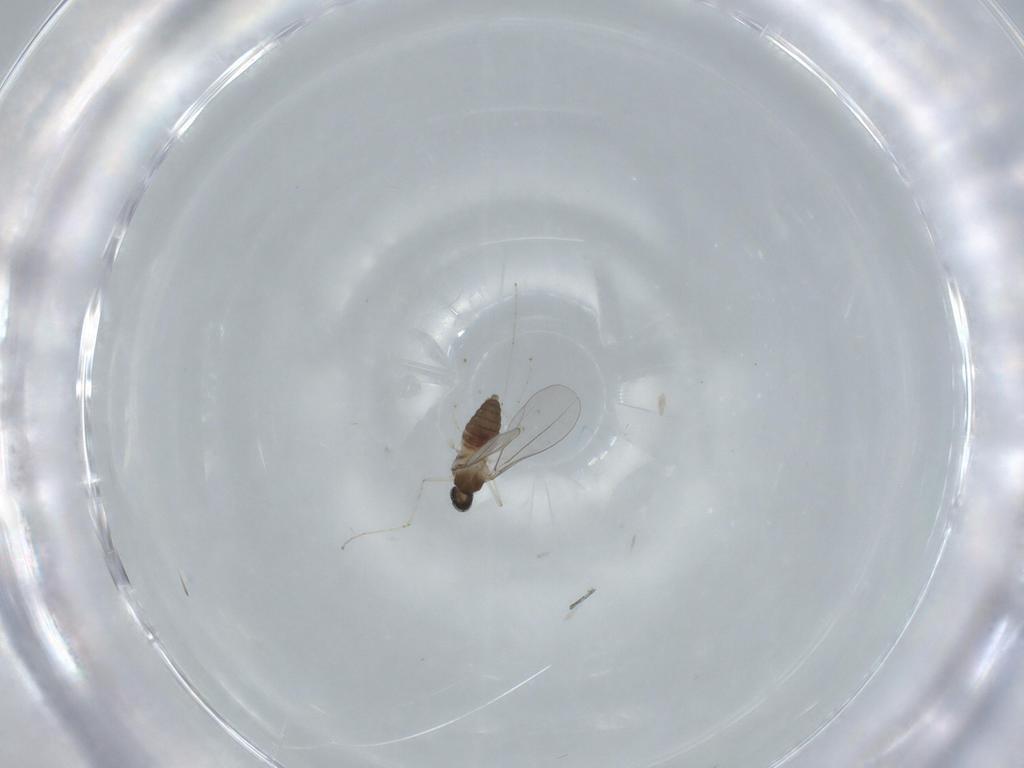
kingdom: Animalia
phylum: Arthropoda
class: Insecta
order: Diptera
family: Cecidomyiidae
